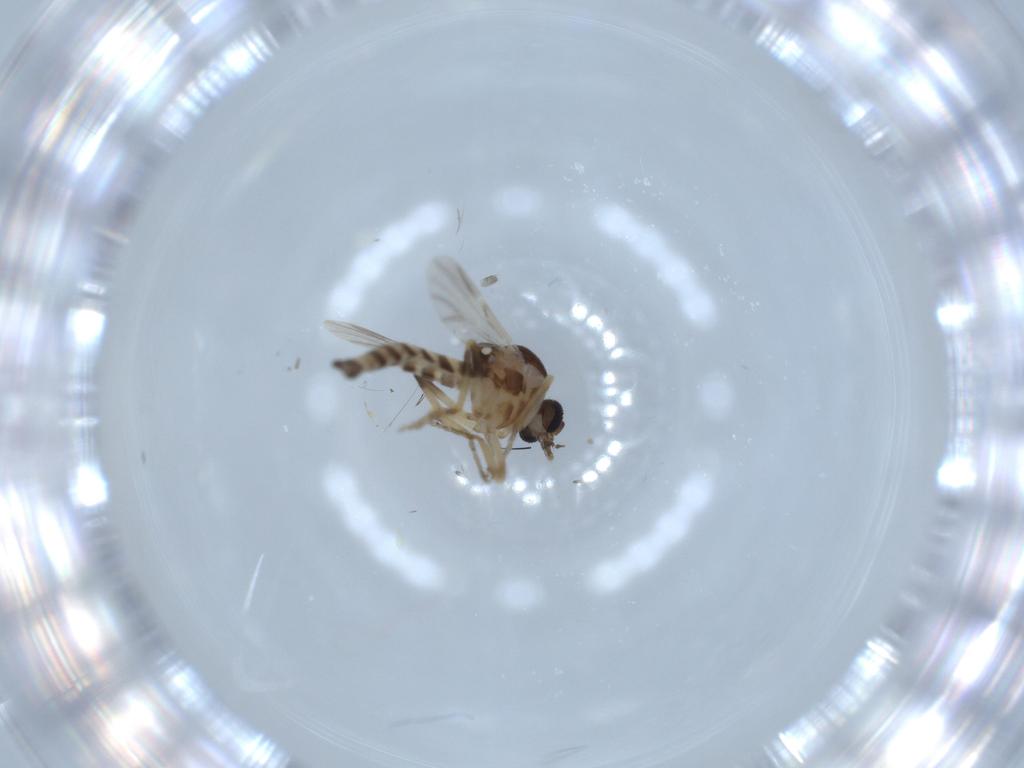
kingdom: Animalia
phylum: Arthropoda
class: Insecta
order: Diptera
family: Ceratopogonidae
